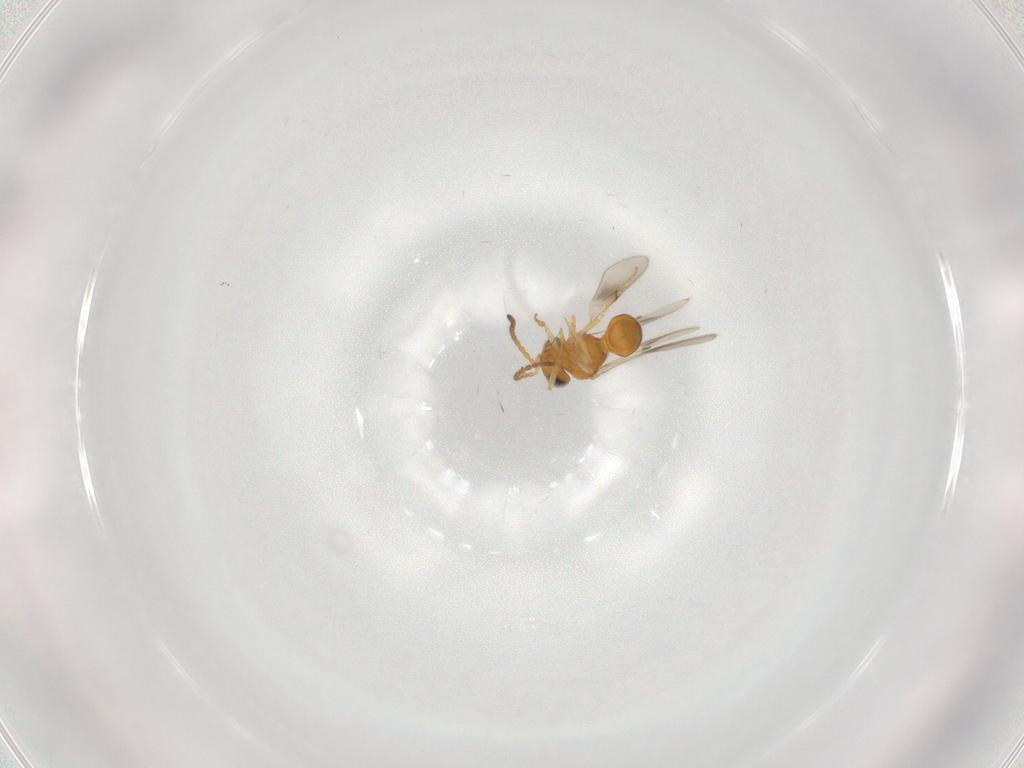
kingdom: Animalia
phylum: Arthropoda
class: Insecta
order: Hymenoptera
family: Scelionidae
